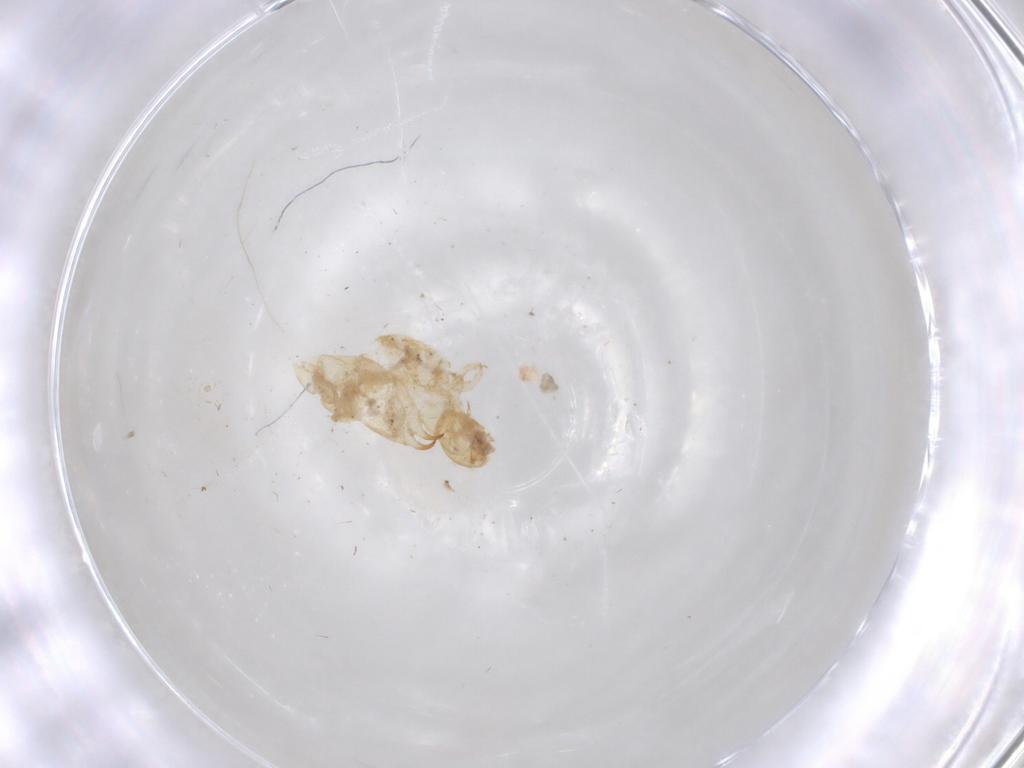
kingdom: Animalia
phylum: Arthropoda
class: Insecta
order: Coleoptera
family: Anthicidae
